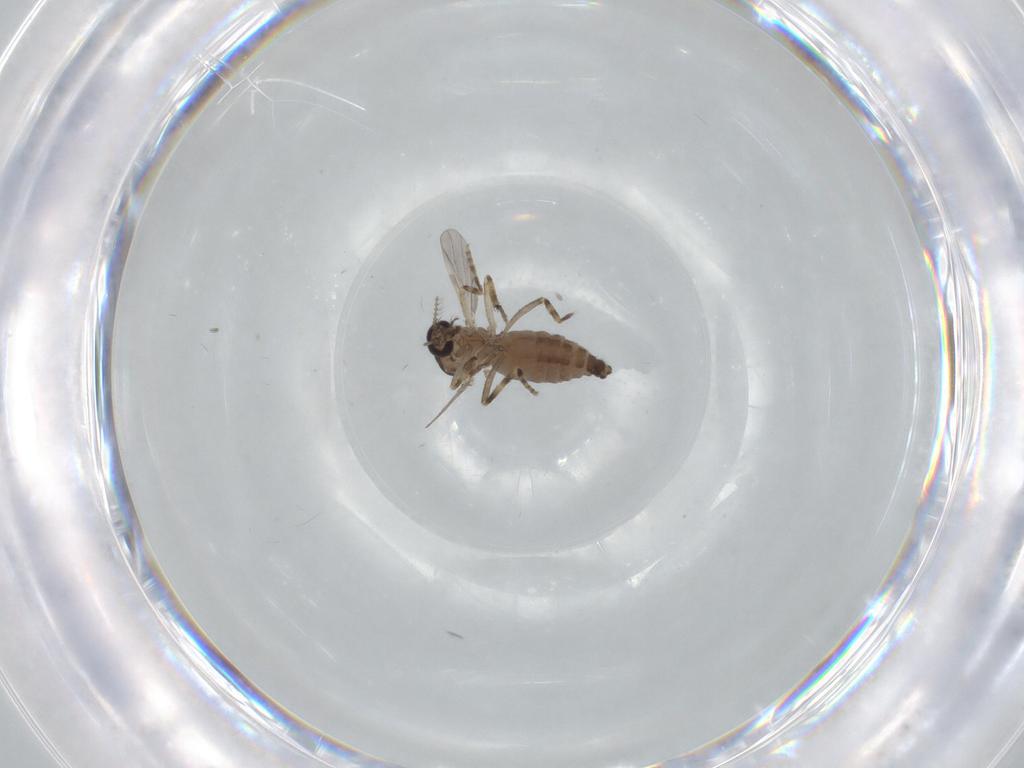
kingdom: Animalia
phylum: Arthropoda
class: Insecta
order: Diptera
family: Ceratopogonidae
